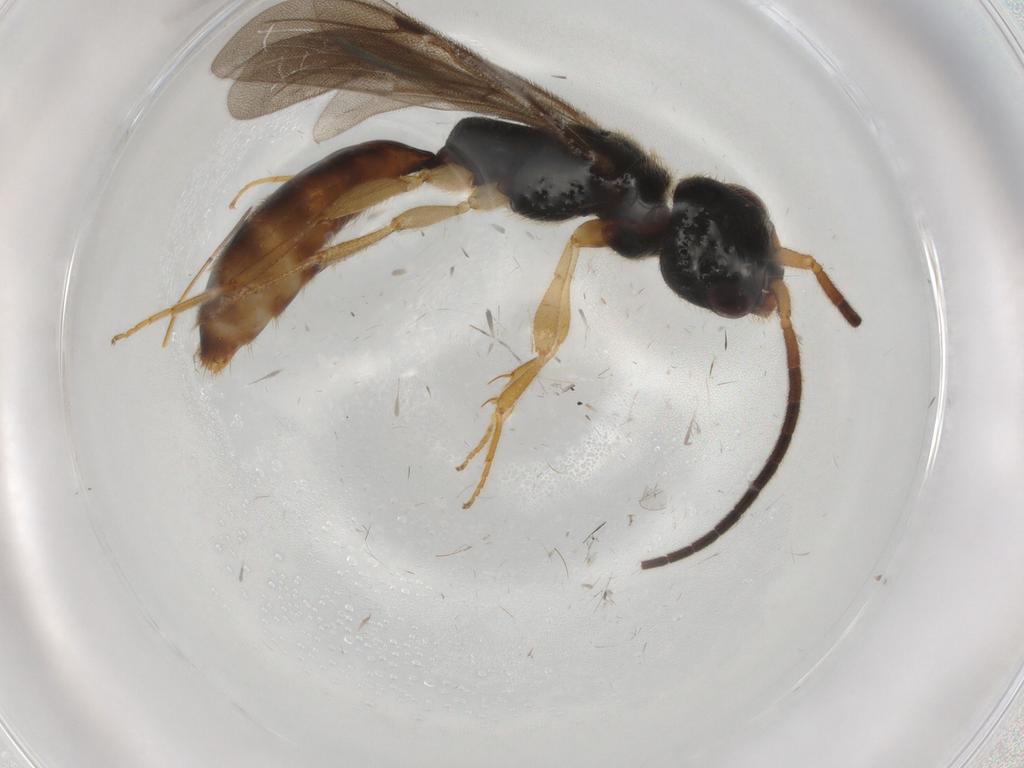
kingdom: Animalia
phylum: Arthropoda
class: Insecta
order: Hymenoptera
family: Bethylidae
